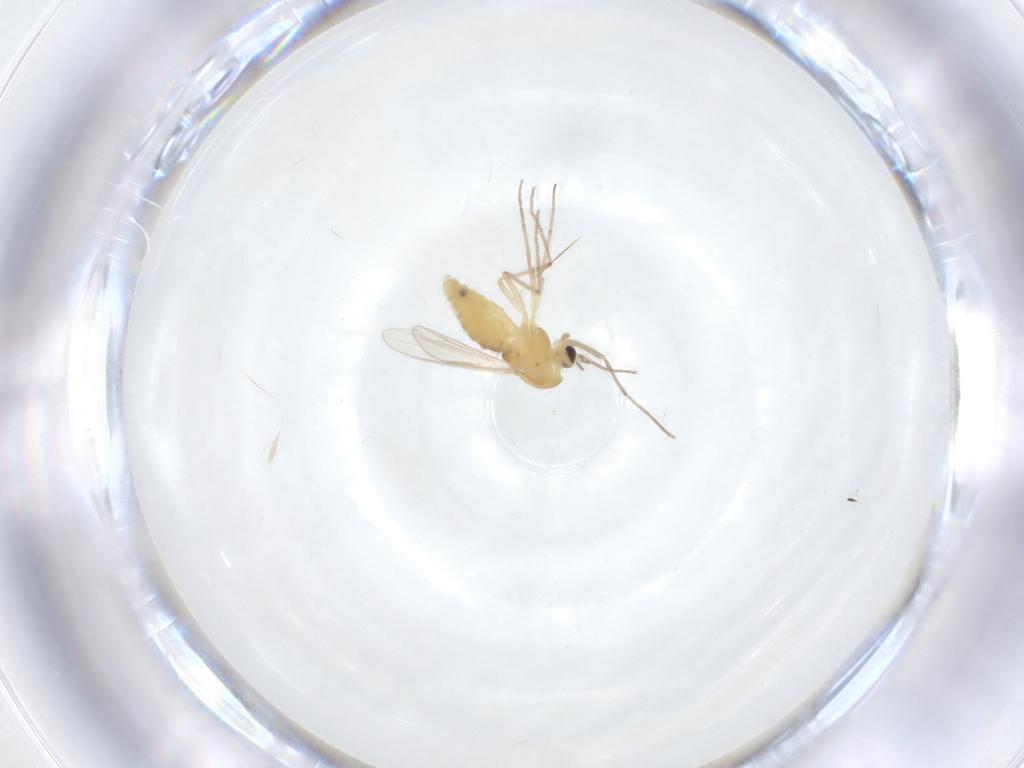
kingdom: Animalia
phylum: Arthropoda
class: Insecta
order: Diptera
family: Chironomidae
